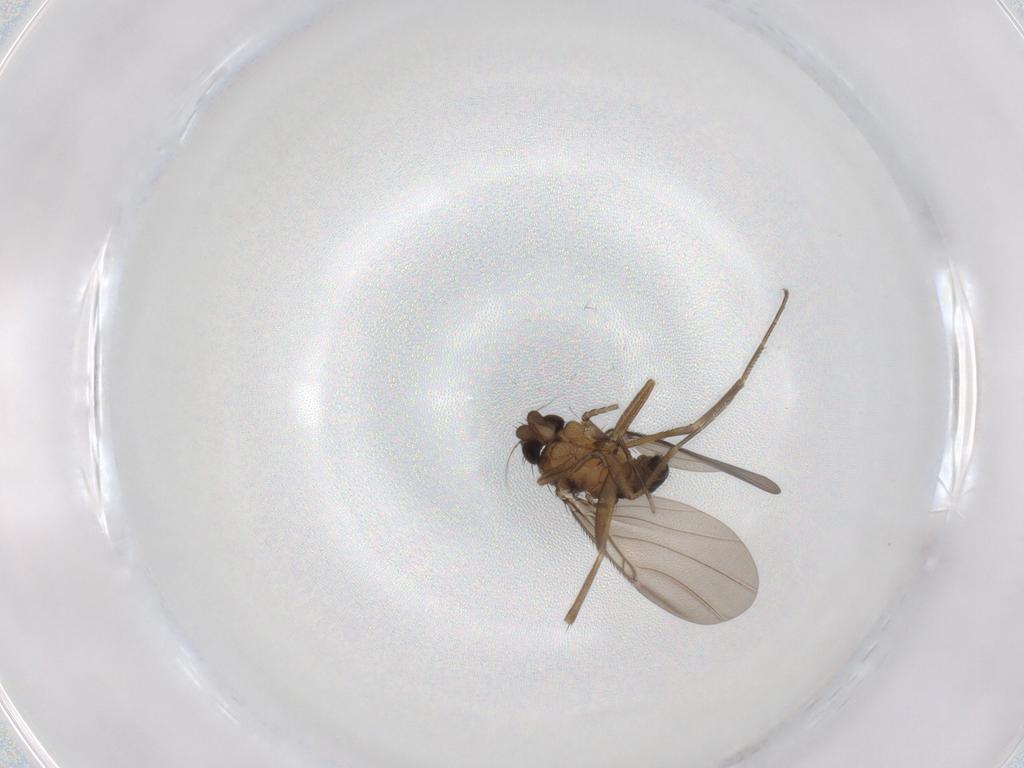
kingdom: Animalia
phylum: Arthropoda
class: Insecta
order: Diptera
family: Phoridae
